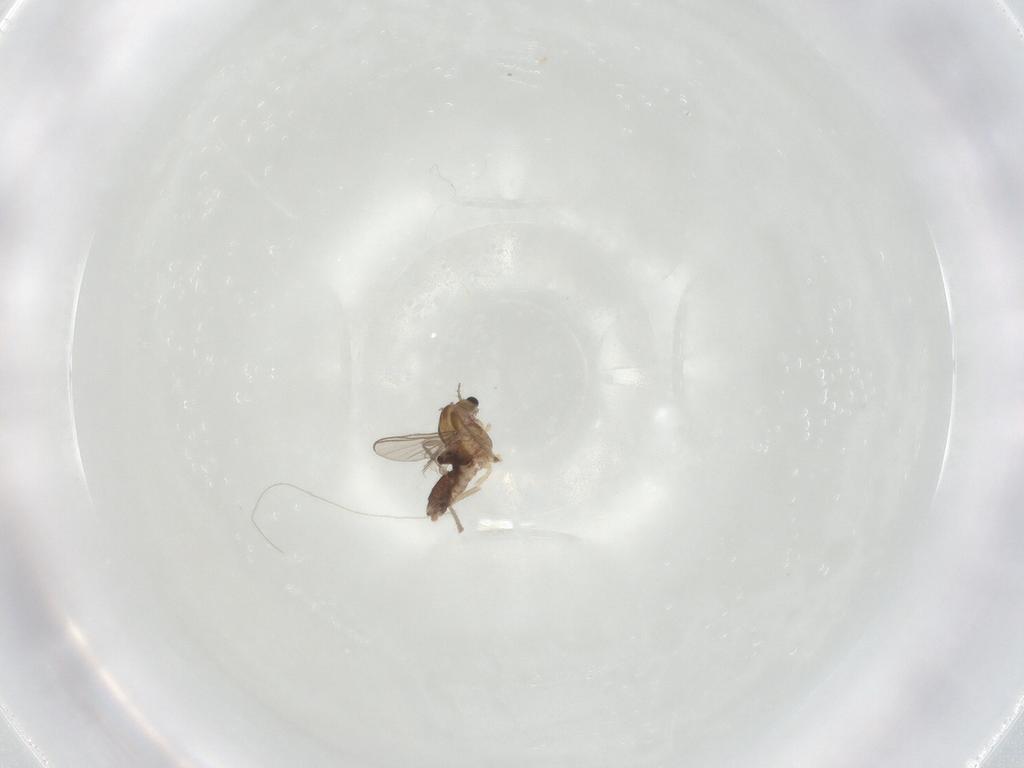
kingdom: Animalia
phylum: Arthropoda
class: Insecta
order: Diptera
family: Chironomidae
